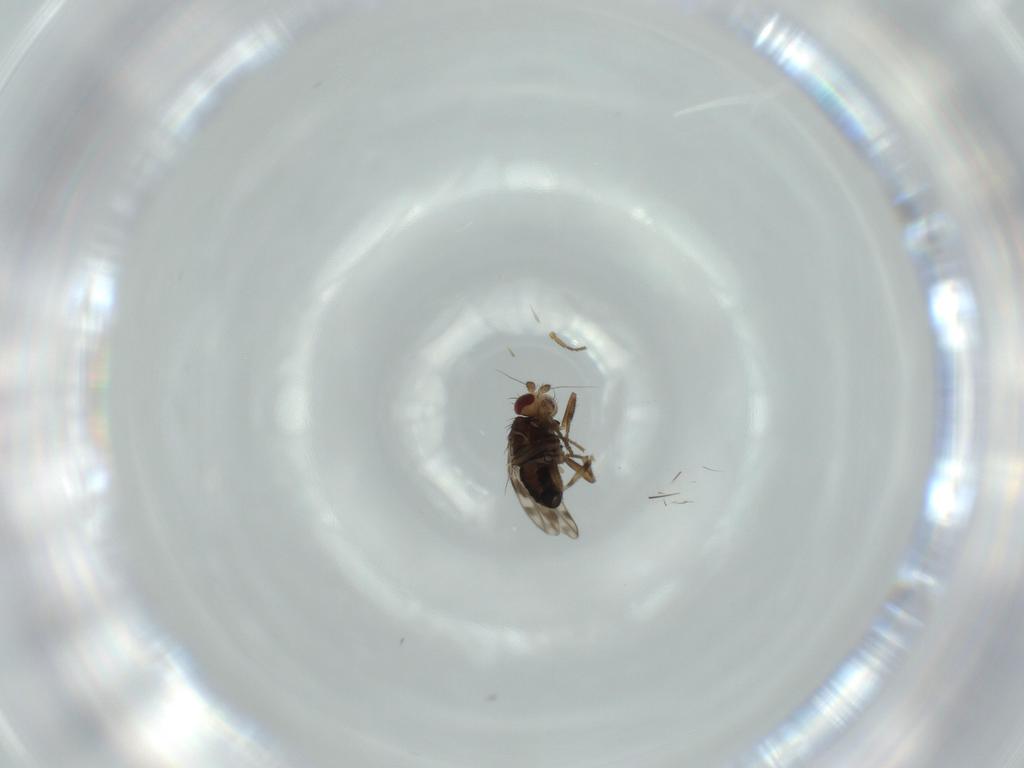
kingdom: Animalia
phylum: Arthropoda
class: Insecta
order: Diptera
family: Sphaeroceridae
